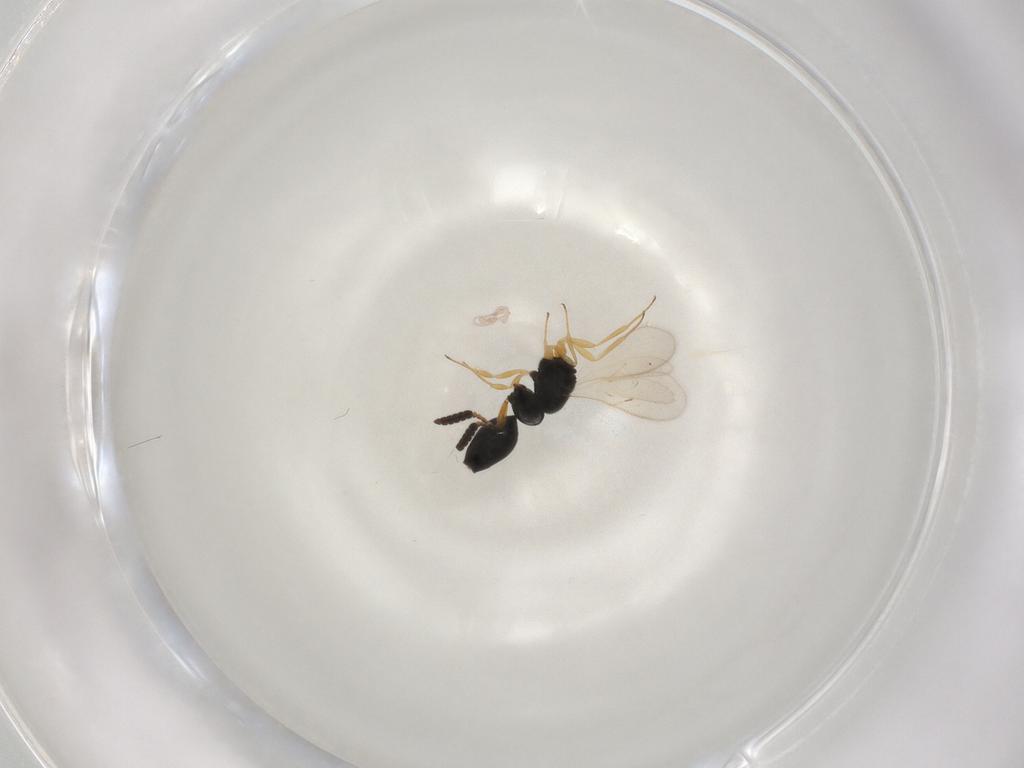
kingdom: Animalia
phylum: Arthropoda
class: Insecta
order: Hymenoptera
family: Scelionidae
